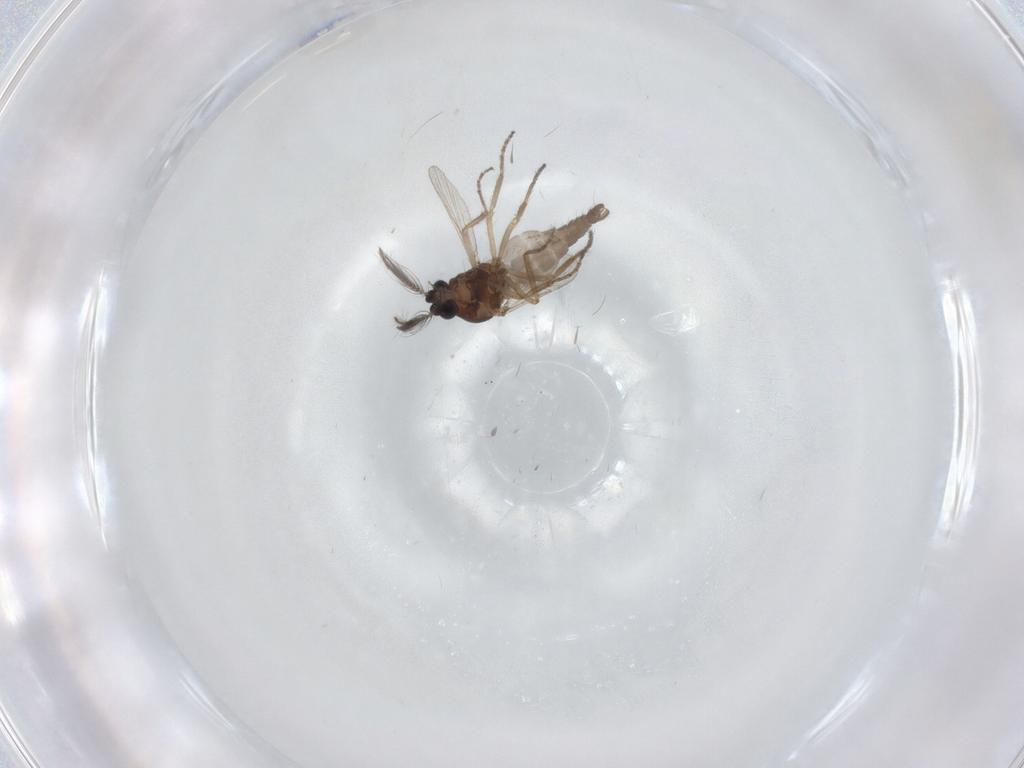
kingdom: Animalia
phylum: Arthropoda
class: Insecta
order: Diptera
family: Ceratopogonidae
